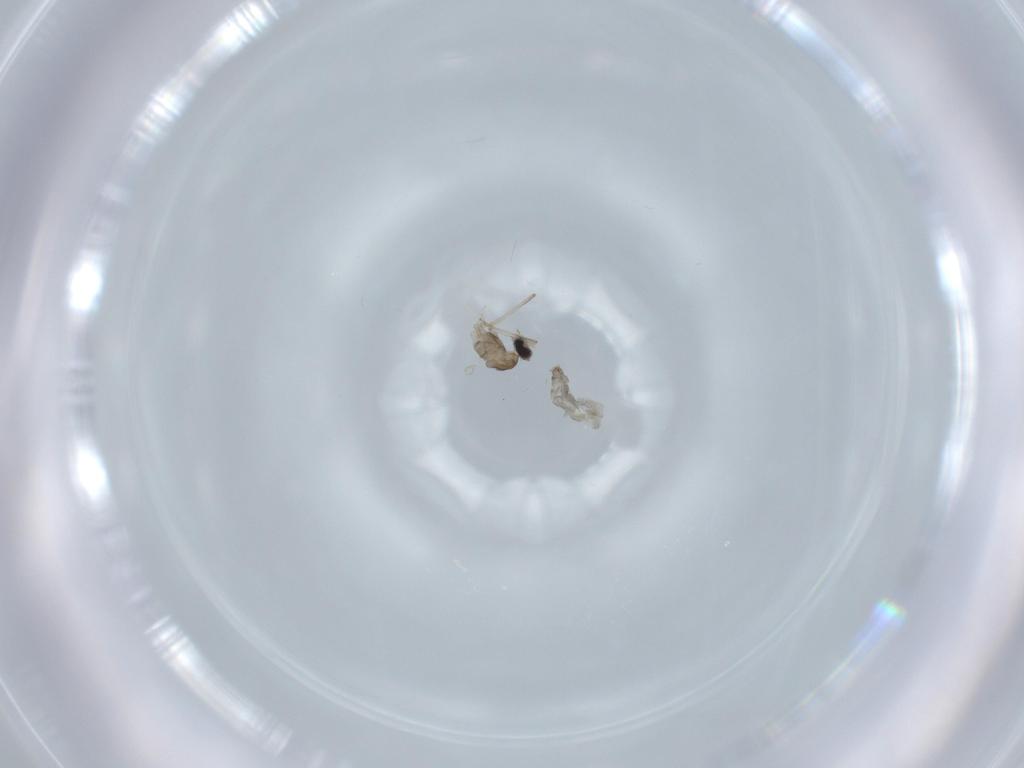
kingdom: Animalia
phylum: Arthropoda
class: Insecta
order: Diptera
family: Cecidomyiidae
